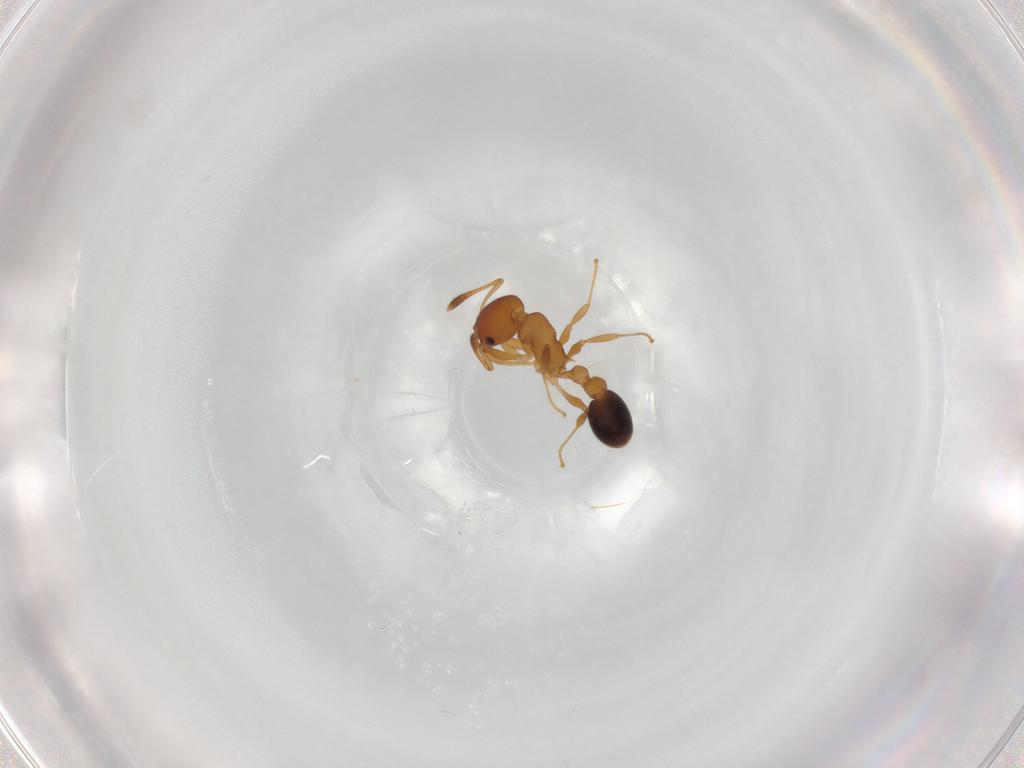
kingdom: Animalia
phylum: Arthropoda
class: Insecta
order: Hymenoptera
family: Formicidae
